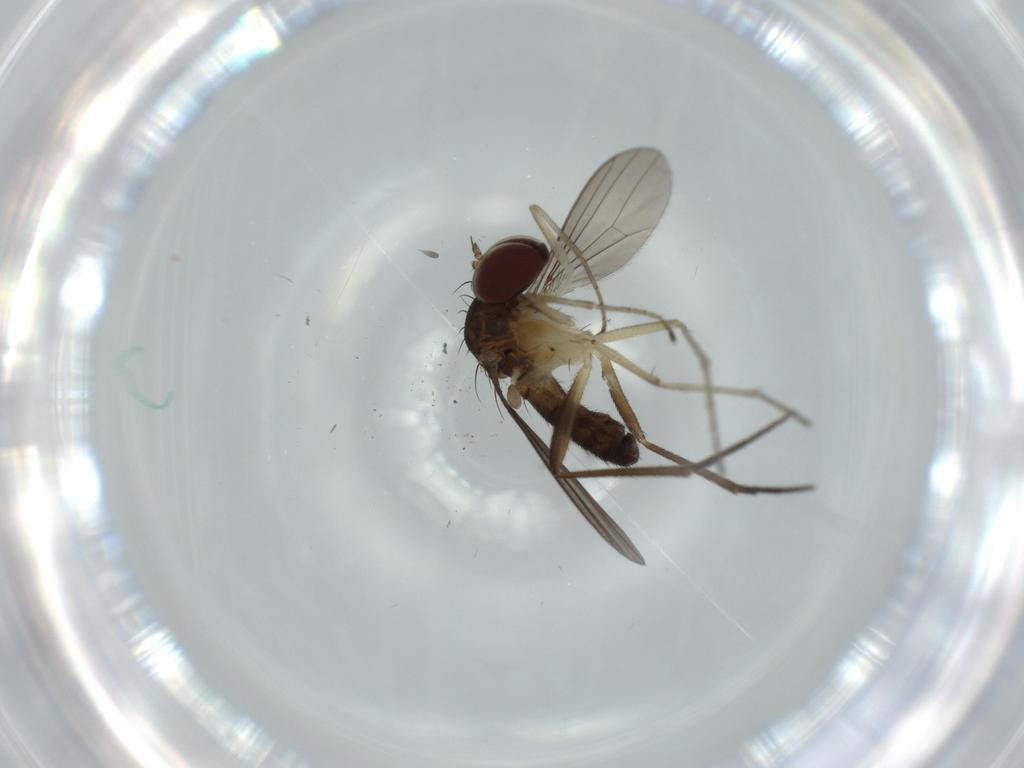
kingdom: Animalia
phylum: Arthropoda
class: Insecta
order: Diptera
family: Dolichopodidae
